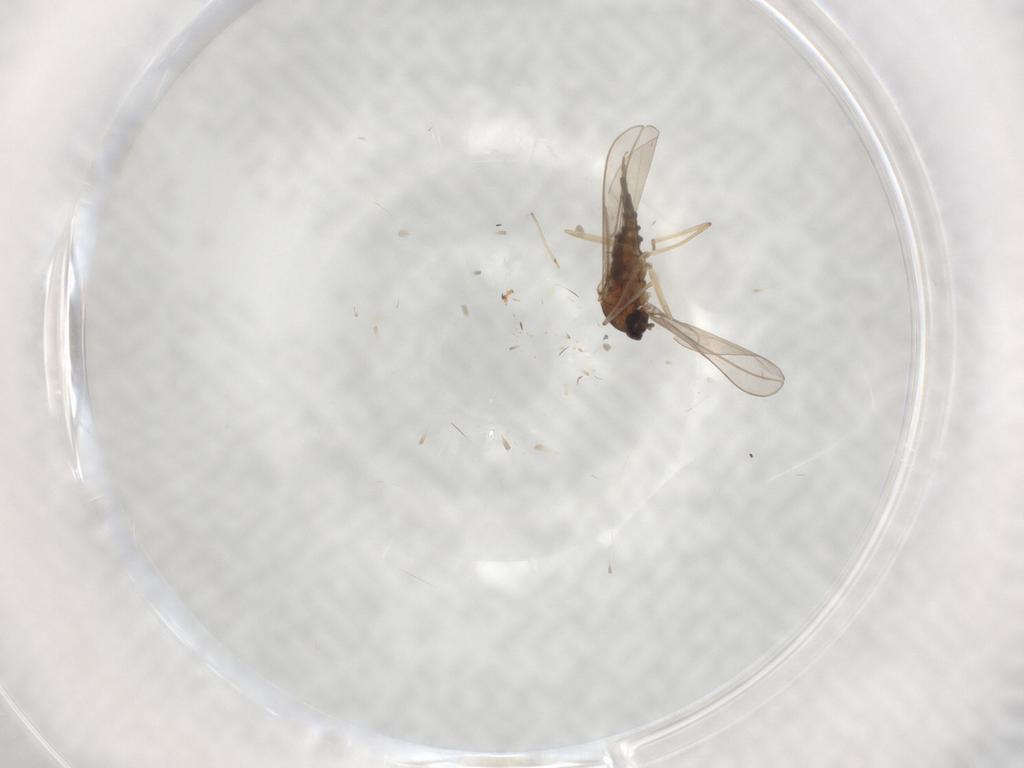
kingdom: Animalia
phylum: Arthropoda
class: Insecta
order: Diptera
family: Cecidomyiidae
